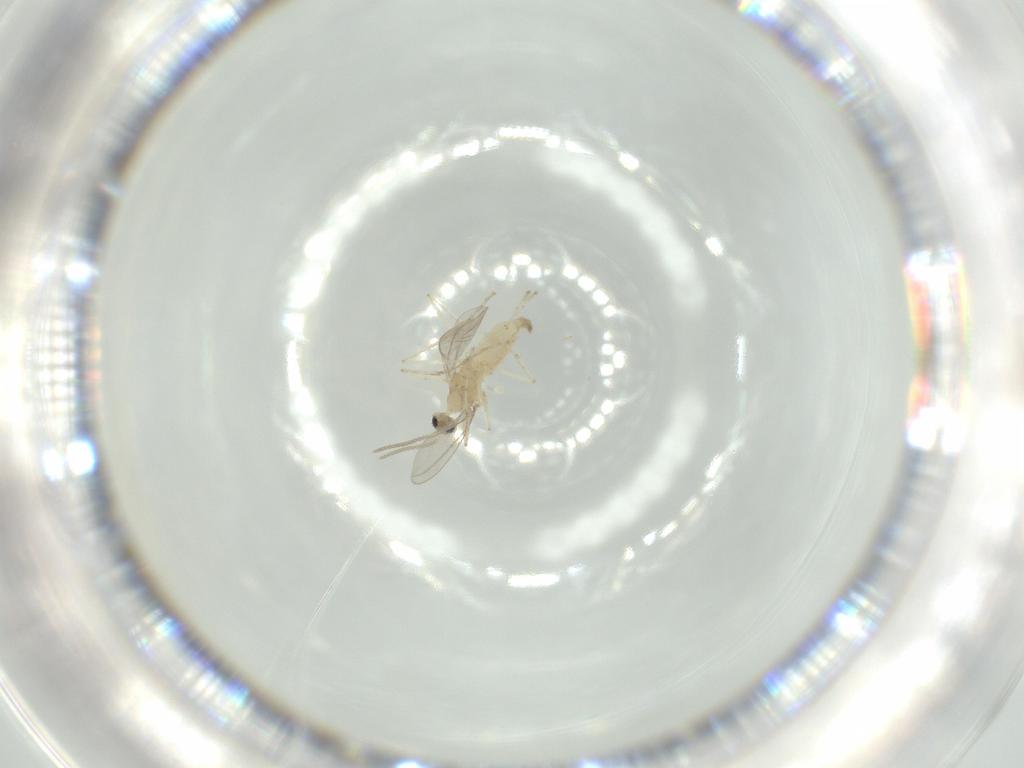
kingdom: Animalia
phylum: Arthropoda
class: Insecta
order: Diptera
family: Cecidomyiidae
